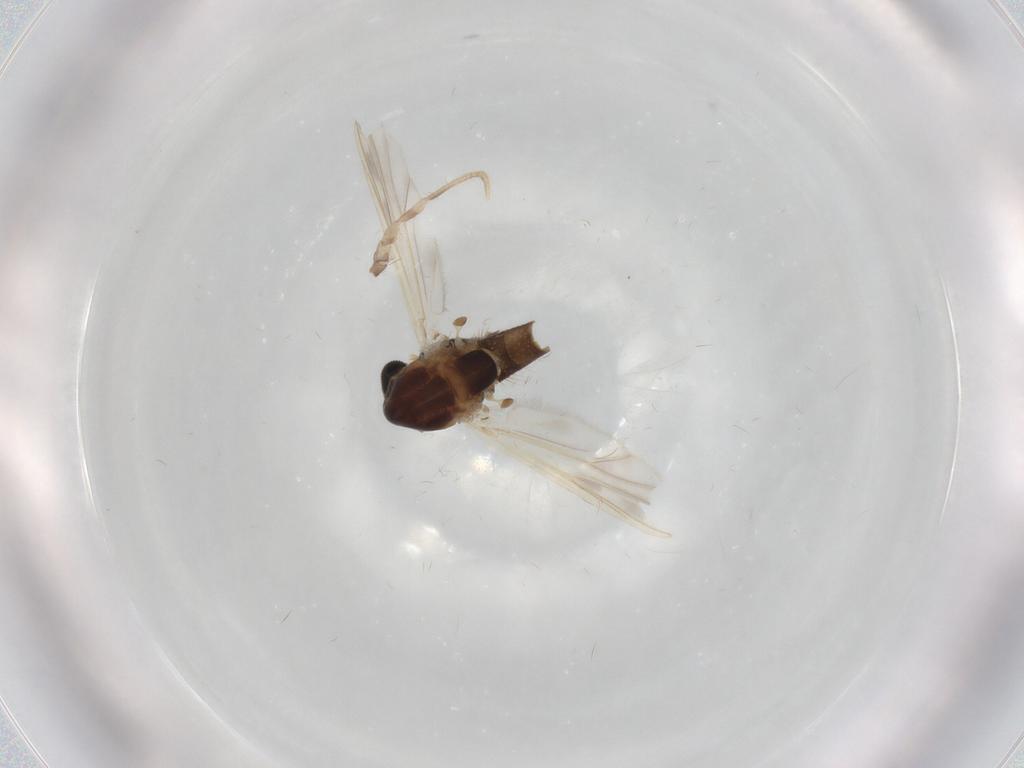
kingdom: Animalia
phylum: Arthropoda
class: Insecta
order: Diptera
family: Chironomidae
